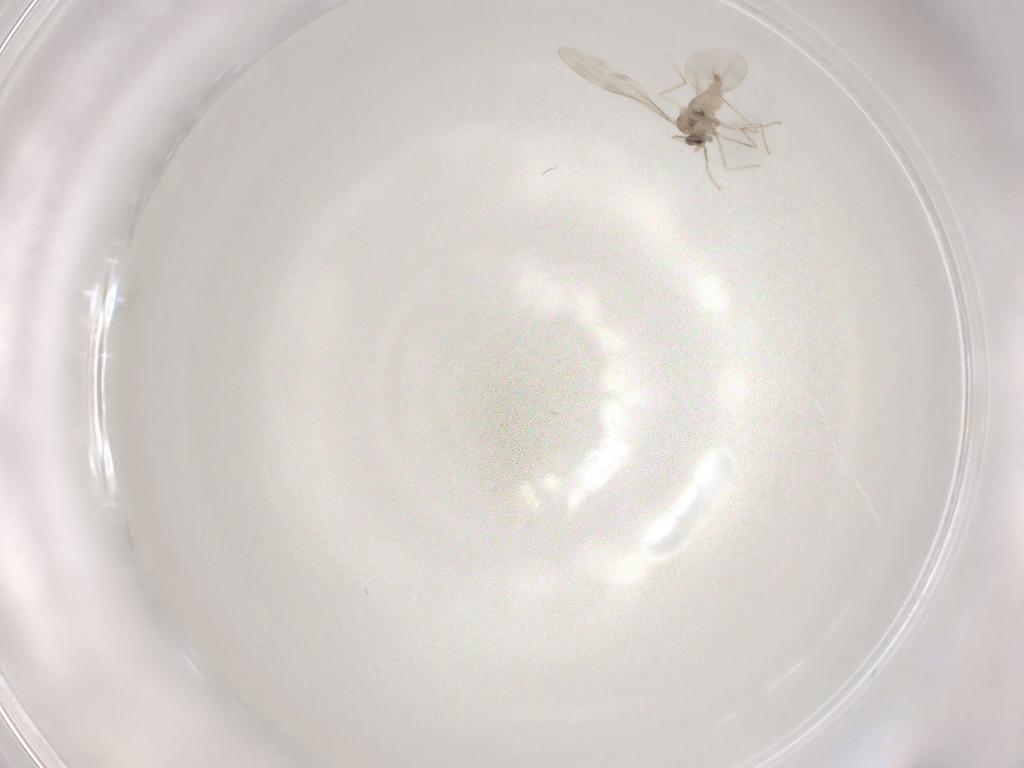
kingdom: Animalia
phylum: Arthropoda
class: Insecta
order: Diptera
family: Cecidomyiidae
